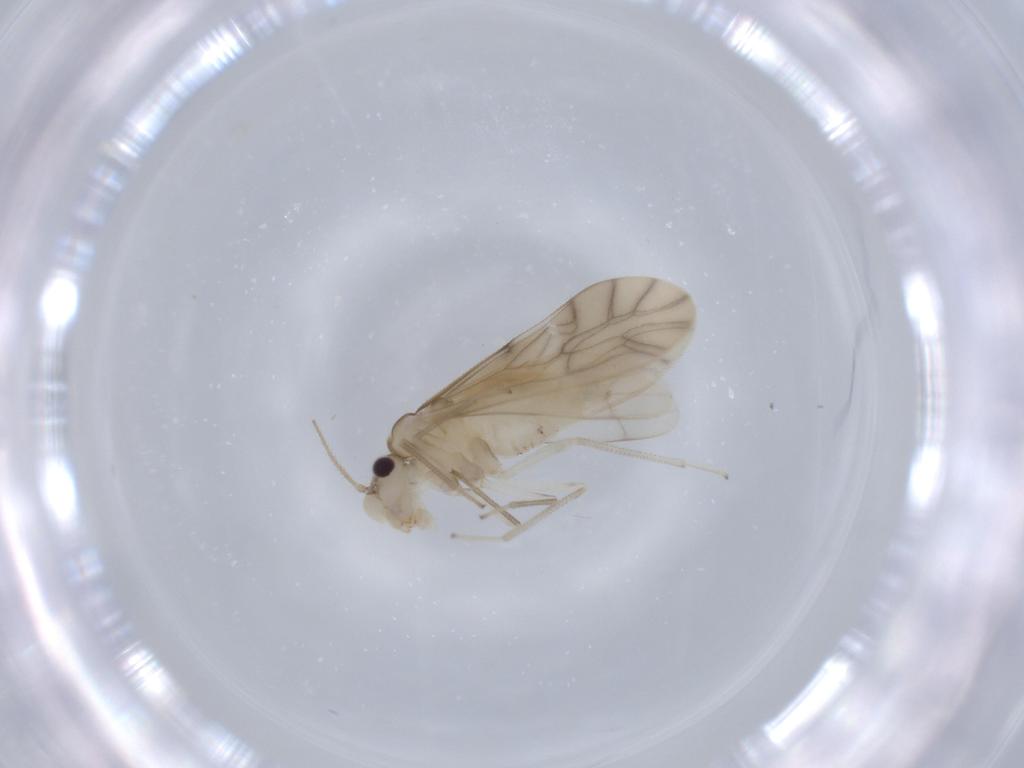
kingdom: Animalia
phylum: Arthropoda
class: Insecta
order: Psocodea
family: Caeciliusidae
